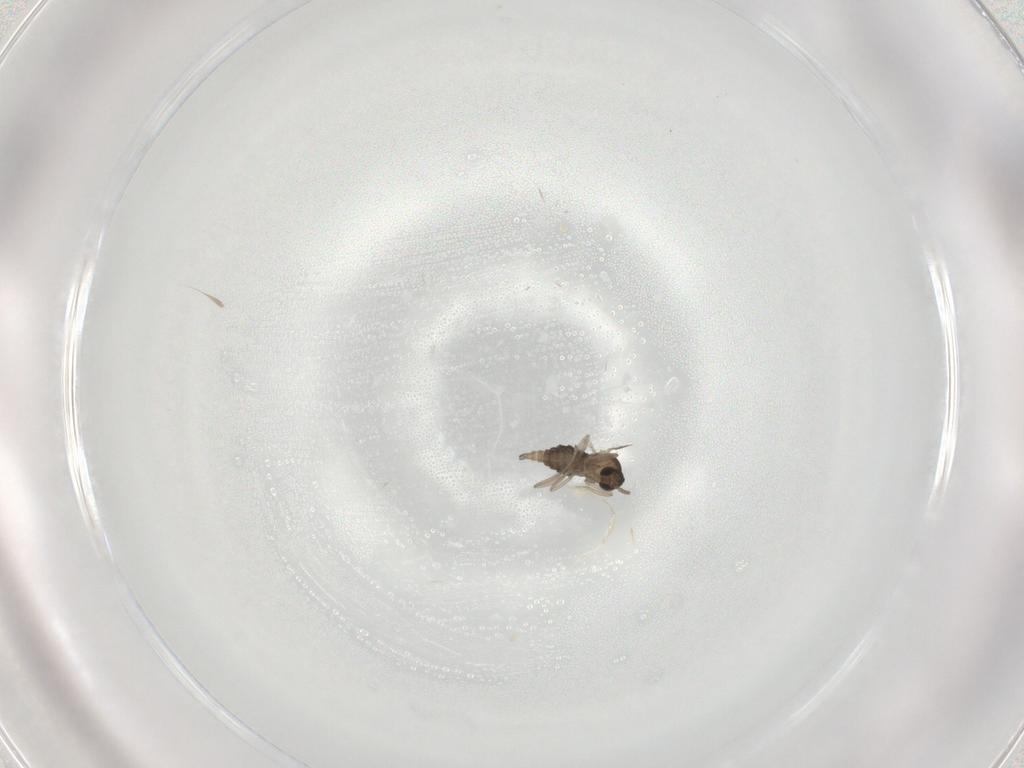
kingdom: Animalia
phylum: Arthropoda
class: Insecta
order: Diptera
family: Cecidomyiidae
